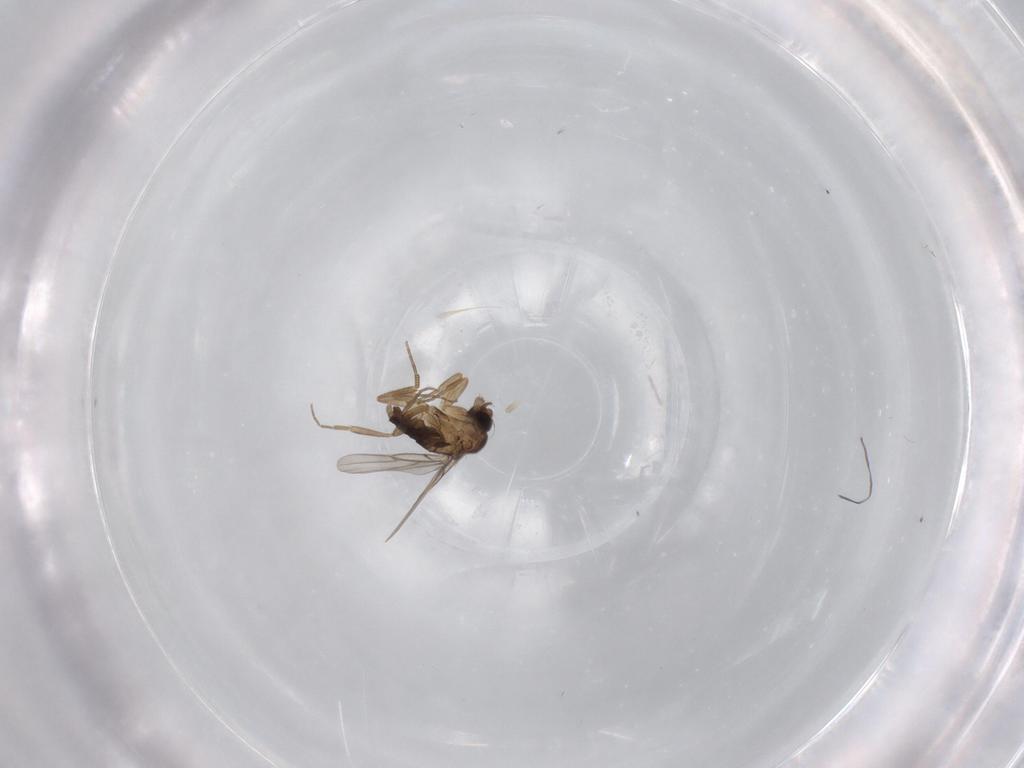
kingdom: Animalia
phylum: Arthropoda
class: Insecta
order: Diptera
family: Phoridae
